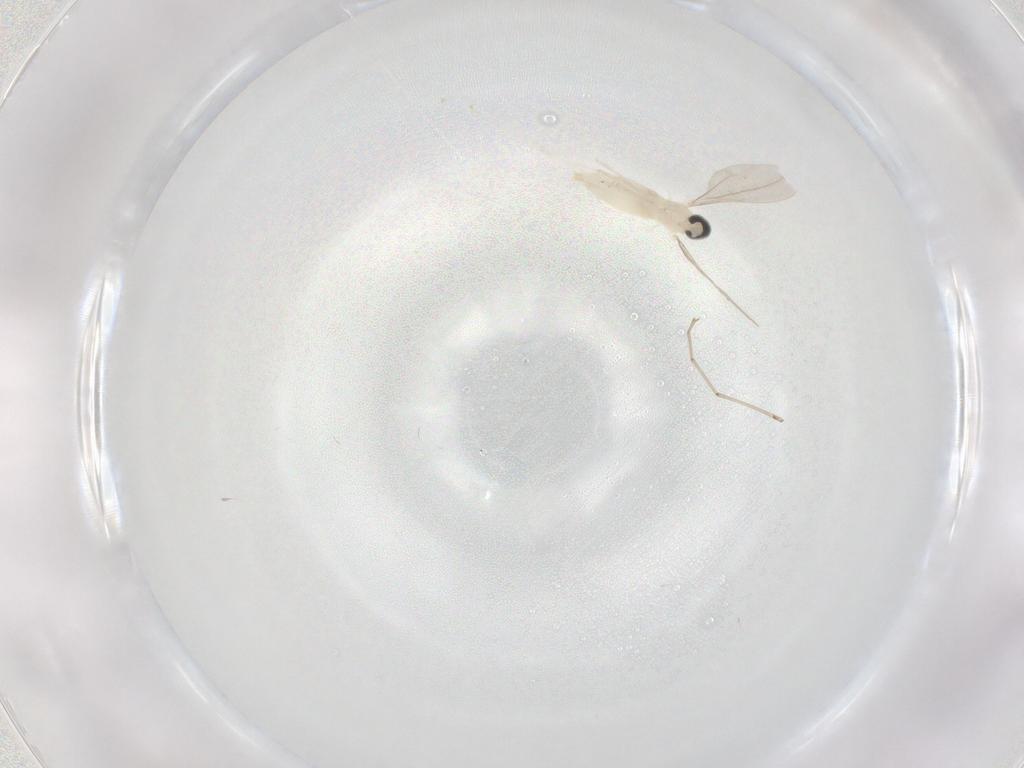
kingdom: Animalia
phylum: Arthropoda
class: Insecta
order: Diptera
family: Cecidomyiidae
